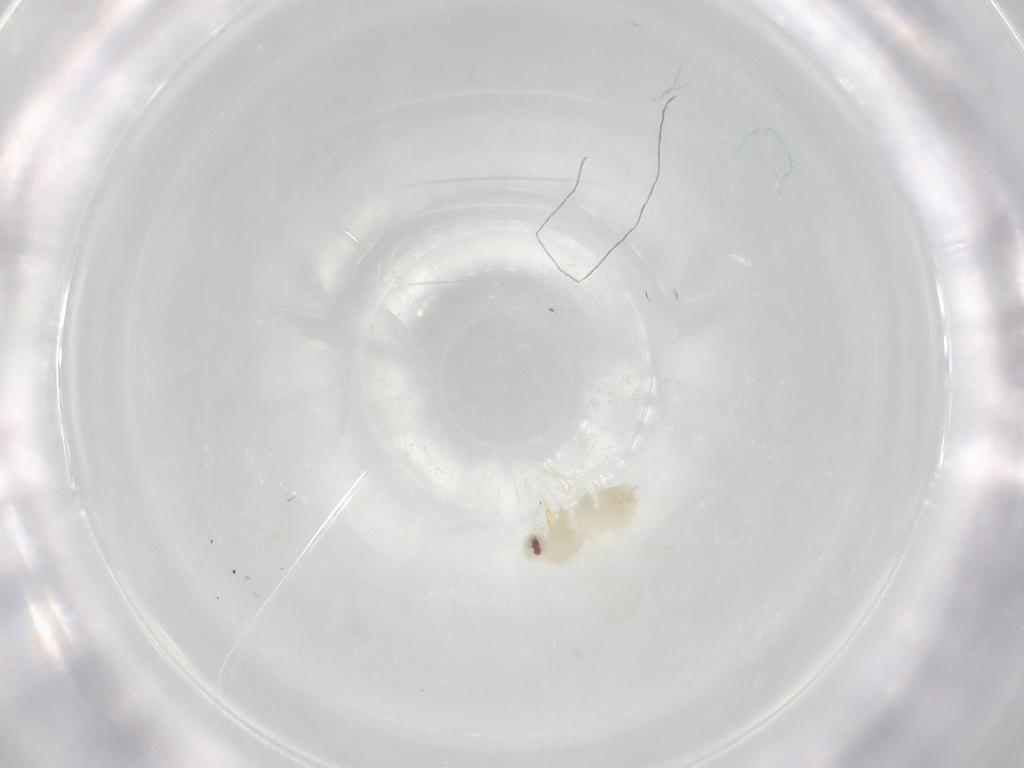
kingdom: Animalia
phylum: Arthropoda
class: Insecta
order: Hemiptera
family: Aleyrodidae
